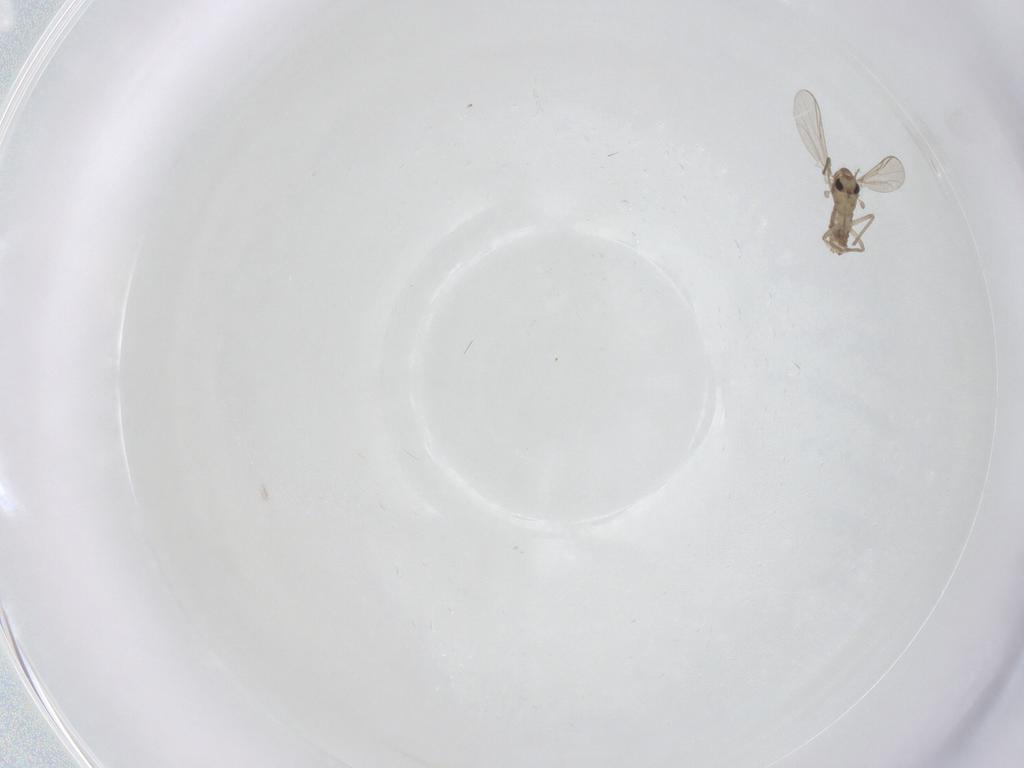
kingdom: Animalia
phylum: Arthropoda
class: Insecta
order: Diptera
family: Chironomidae
